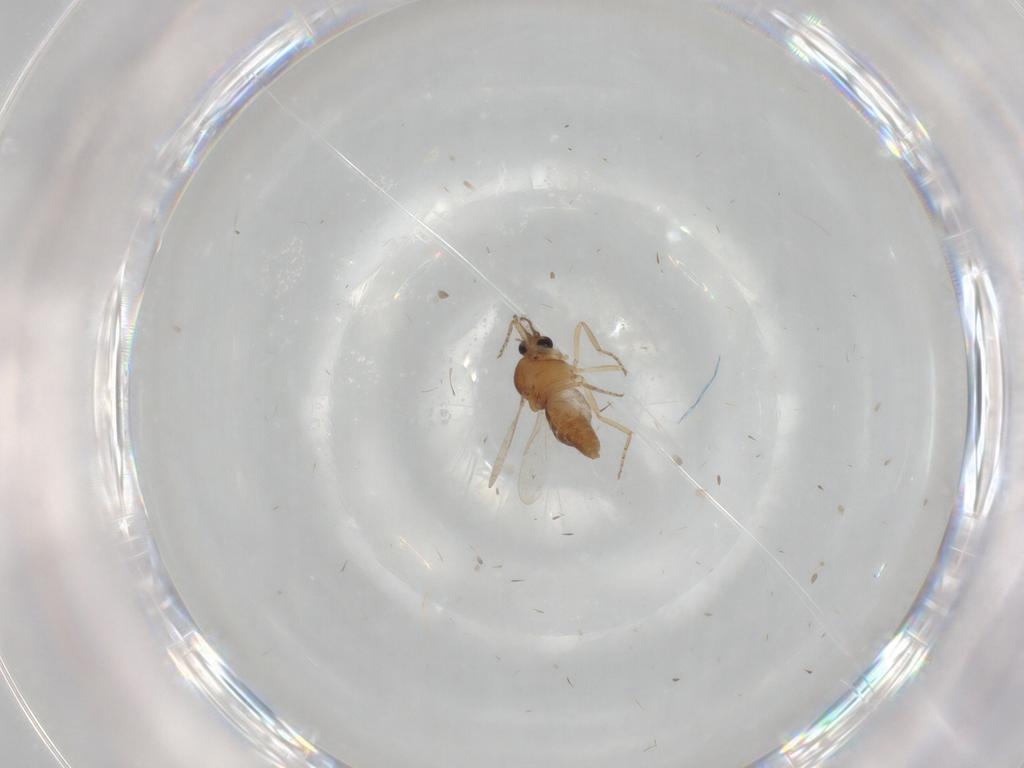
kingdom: Animalia
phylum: Arthropoda
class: Insecta
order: Diptera
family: Ceratopogonidae
